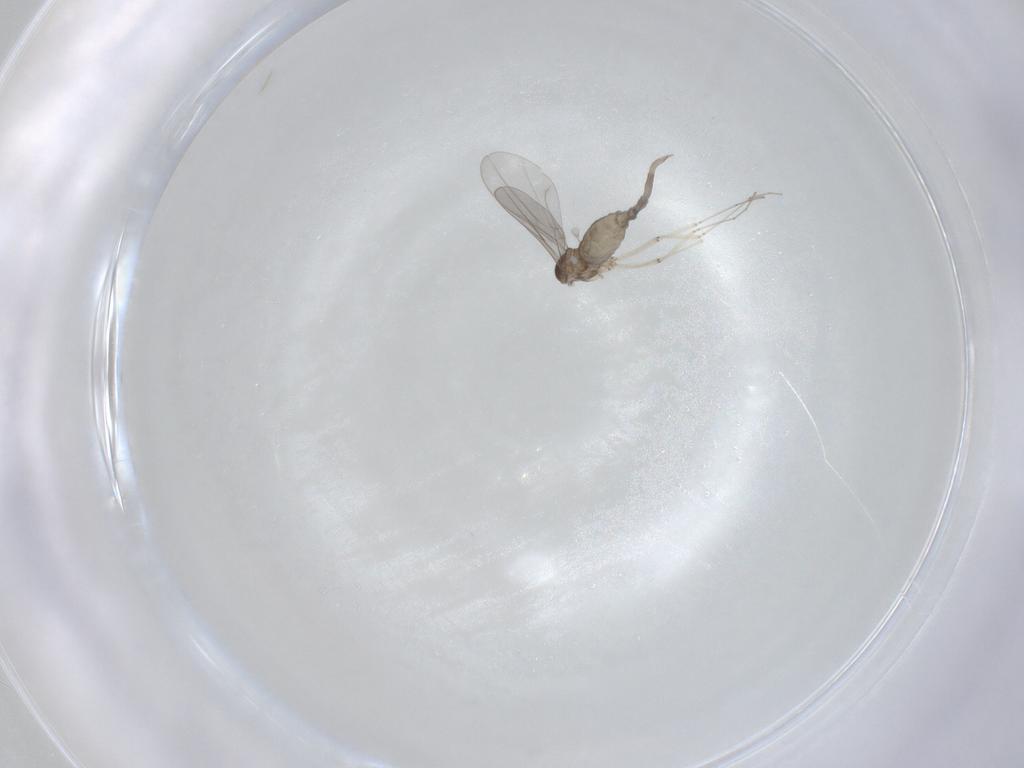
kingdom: Animalia
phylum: Arthropoda
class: Insecta
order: Diptera
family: Cecidomyiidae
